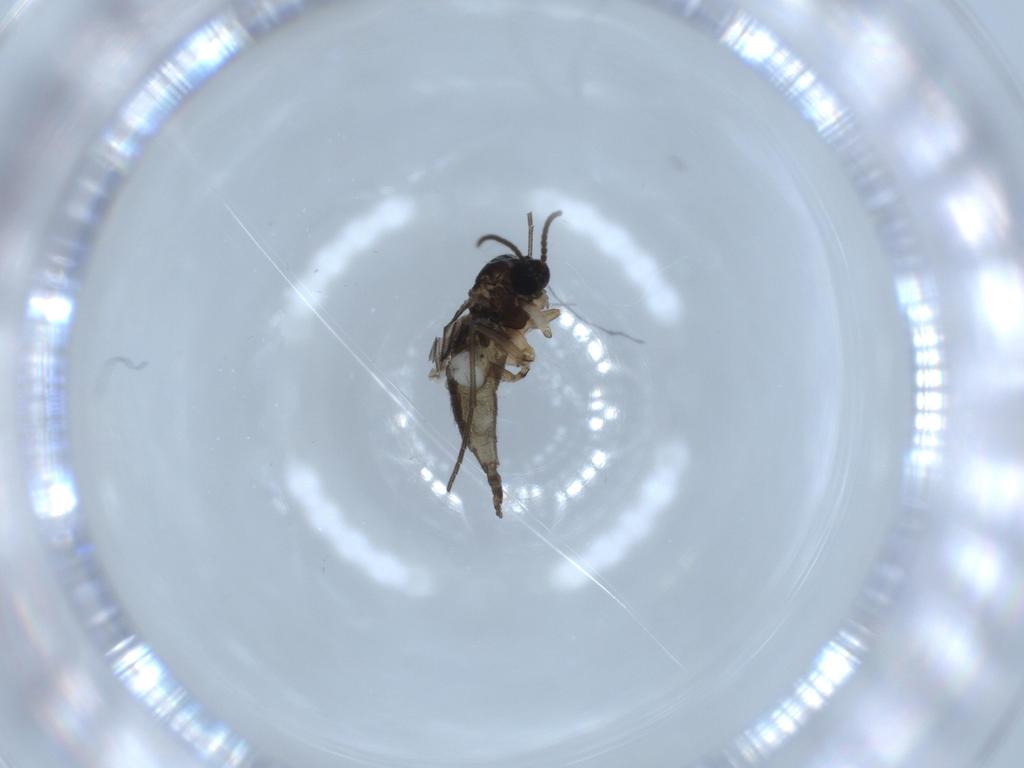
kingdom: Animalia
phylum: Arthropoda
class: Insecta
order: Diptera
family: Sciaridae
